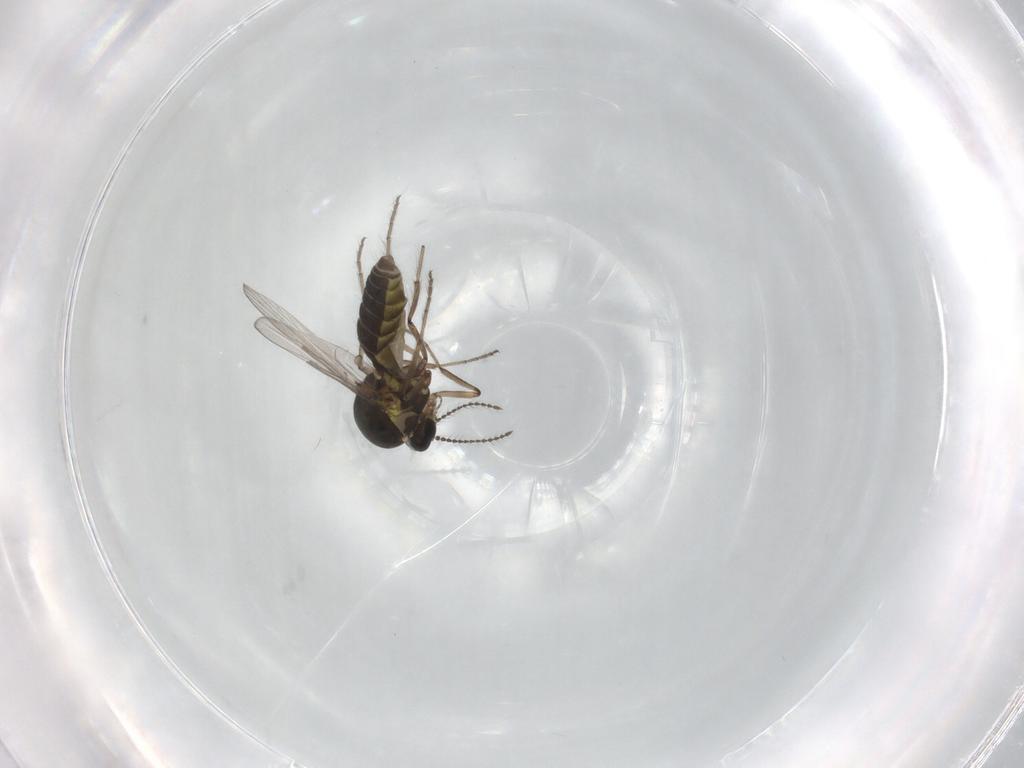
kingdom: Animalia
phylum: Arthropoda
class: Insecta
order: Diptera
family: Ceratopogonidae
